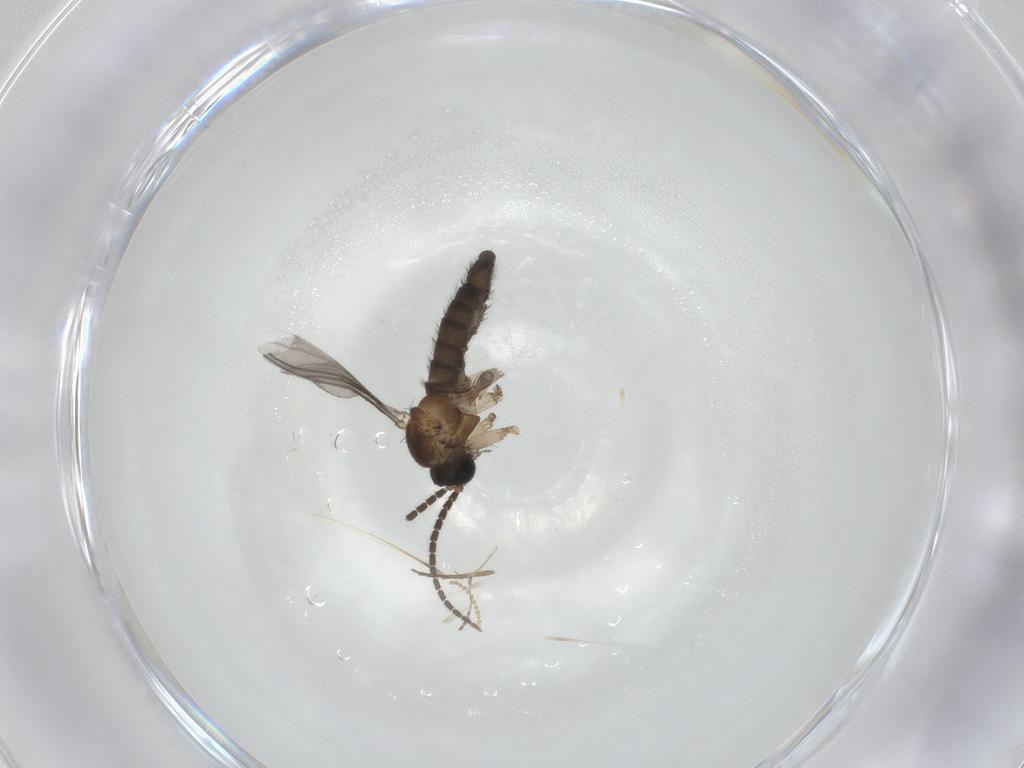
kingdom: Animalia
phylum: Arthropoda
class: Insecta
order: Diptera
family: Sciaridae
